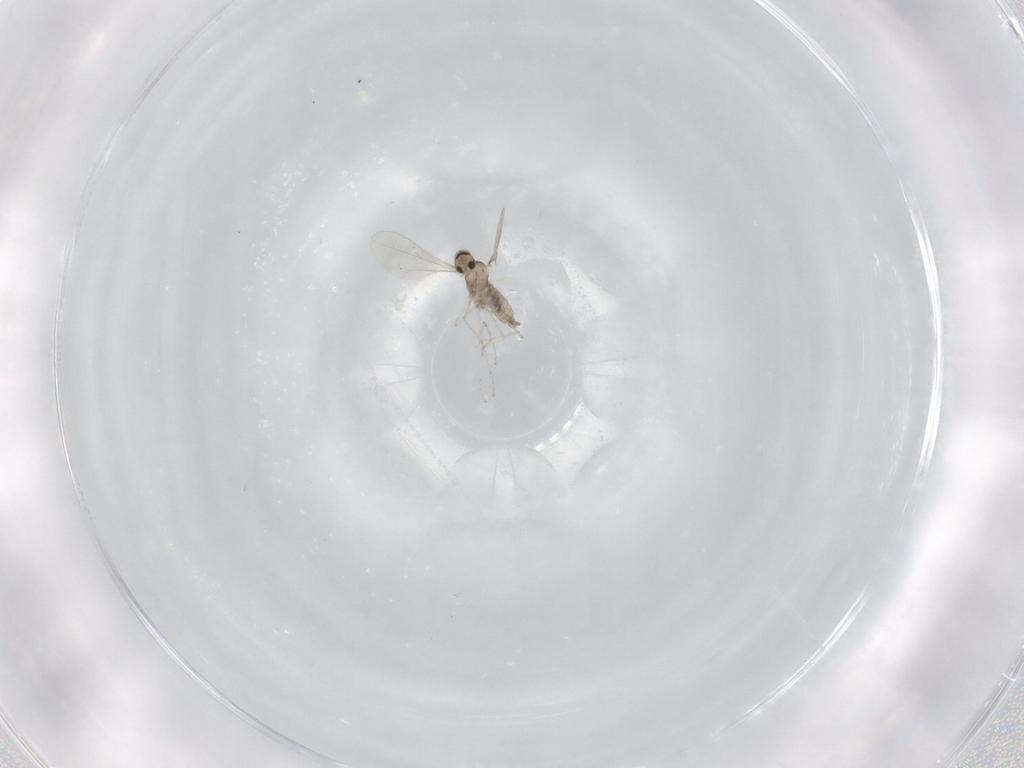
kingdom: Animalia
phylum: Arthropoda
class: Insecta
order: Diptera
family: Cecidomyiidae
